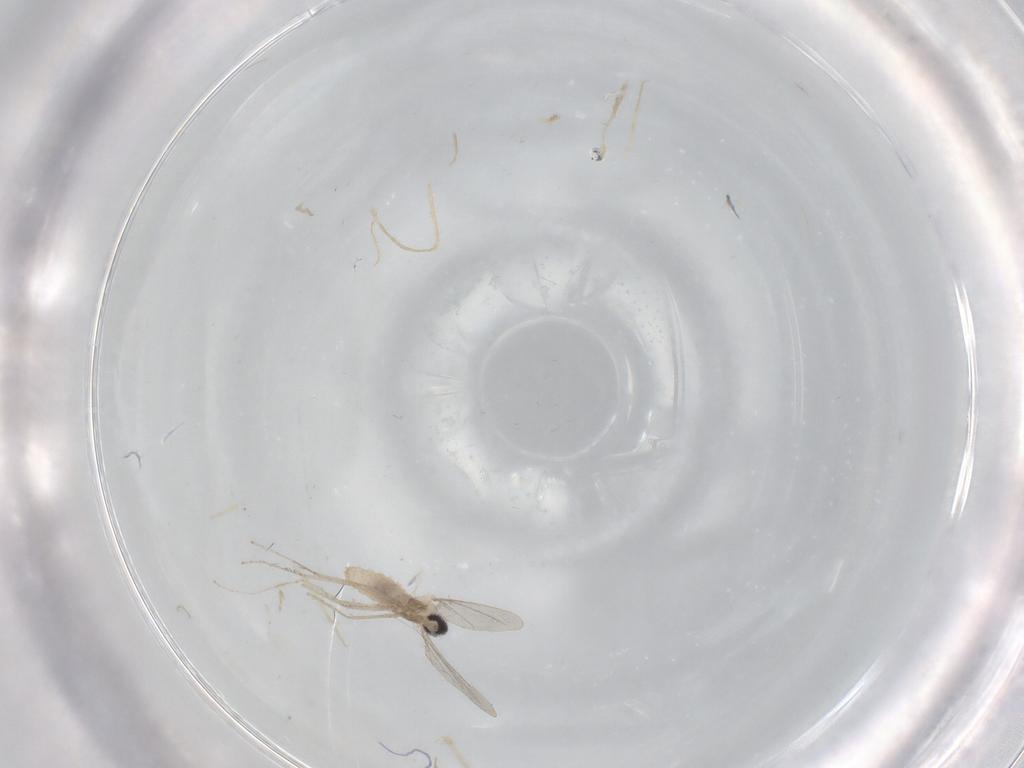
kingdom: Animalia
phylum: Arthropoda
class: Insecta
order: Diptera
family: Cecidomyiidae
